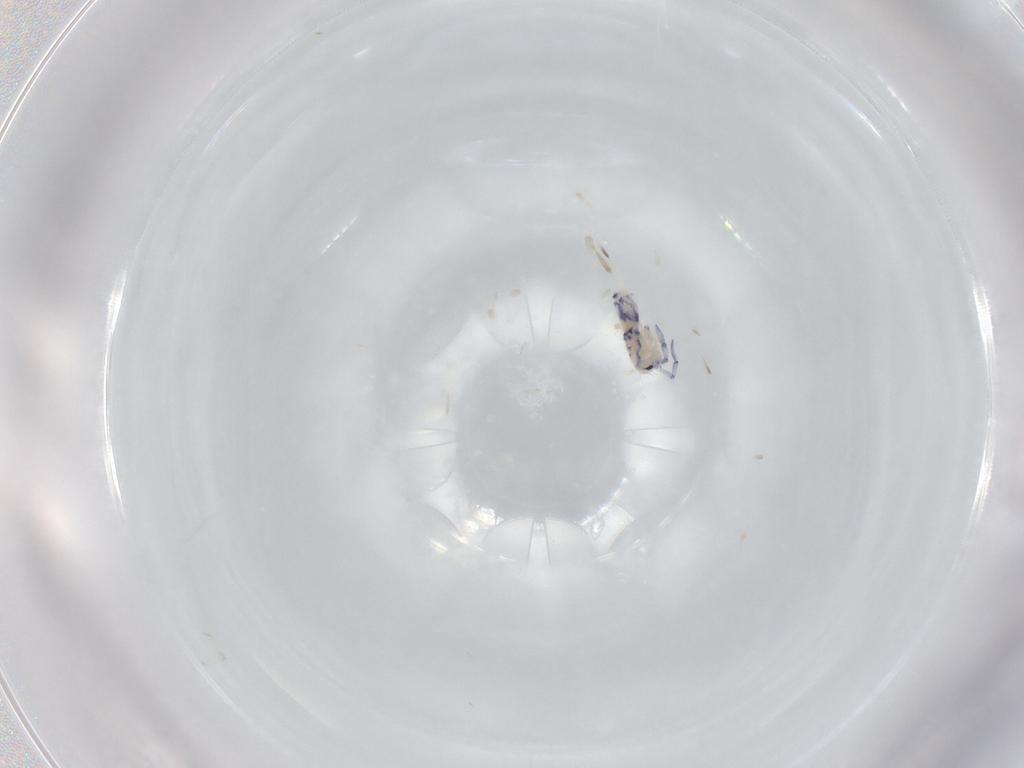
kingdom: Animalia
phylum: Arthropoda
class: Collembola
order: Entomobryomorpha
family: Entomobryidae
